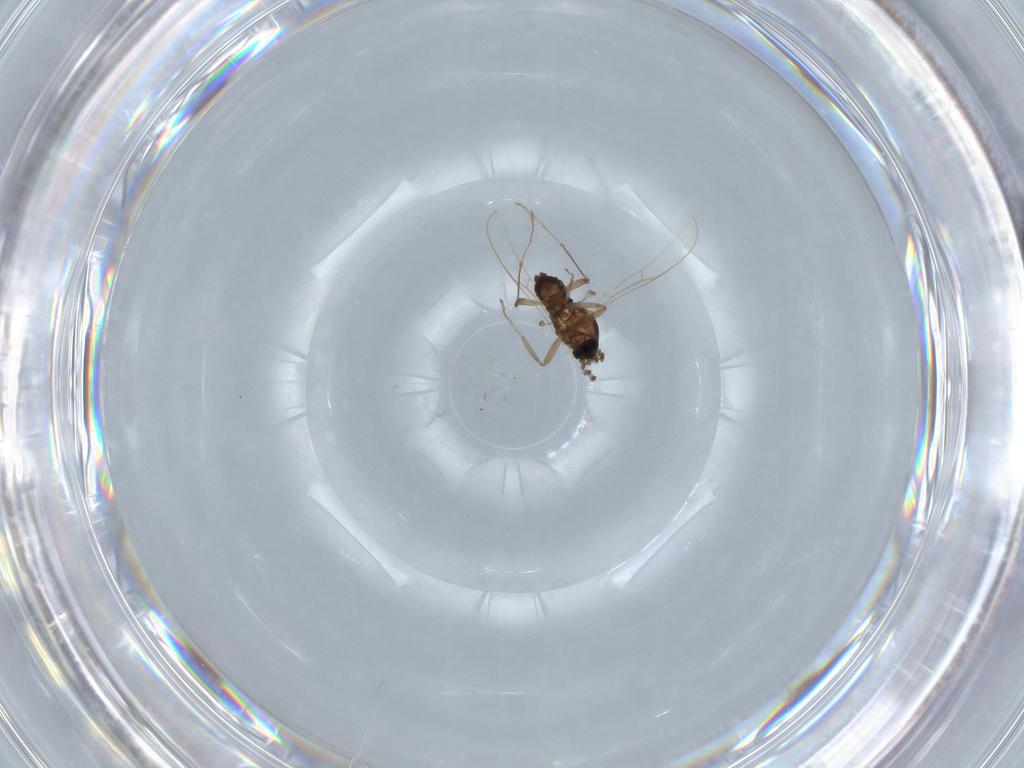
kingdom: Animalia
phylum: Arthropoda
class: Insecta
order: Diptera
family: Cecidomyiidae
